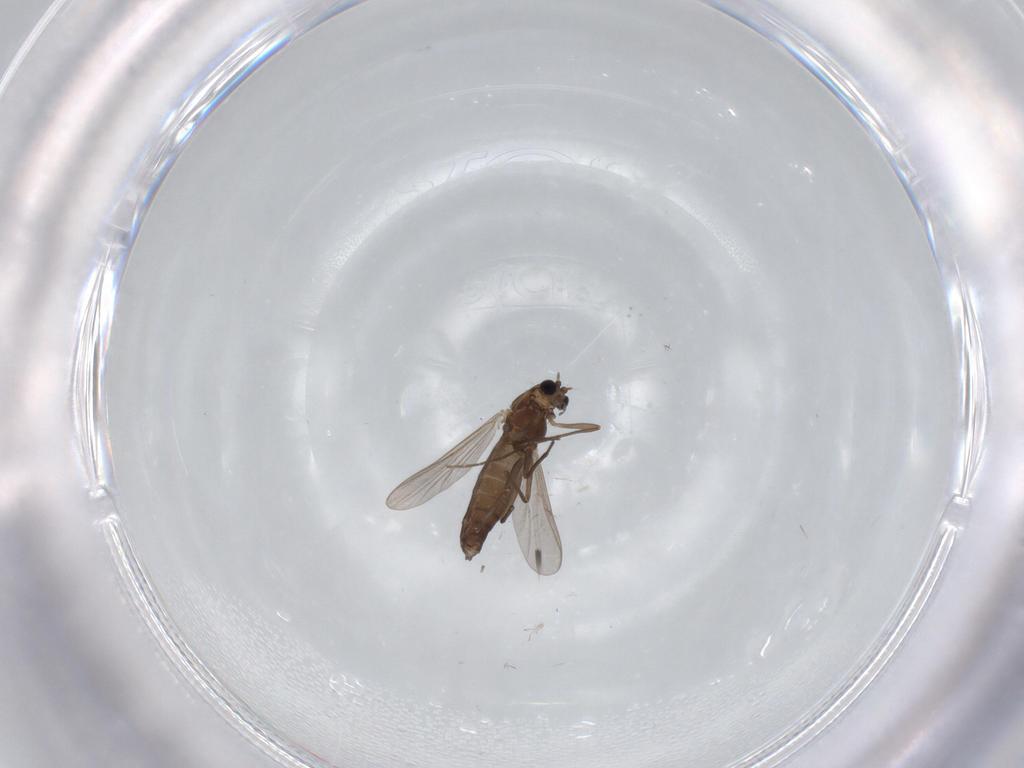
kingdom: Animalia
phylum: Arthropoda
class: Insecta
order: Diptera
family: Chironomidae
